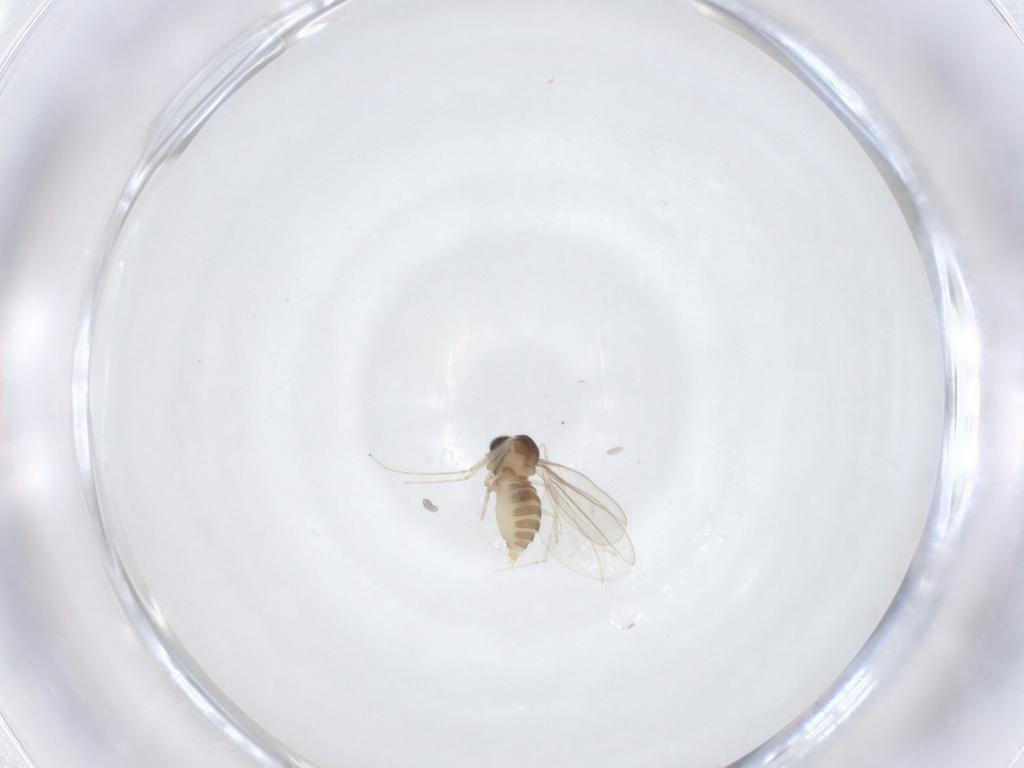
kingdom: Animalia
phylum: Arthropoda
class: Insecta
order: Diptera
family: Cecidomyiidae
